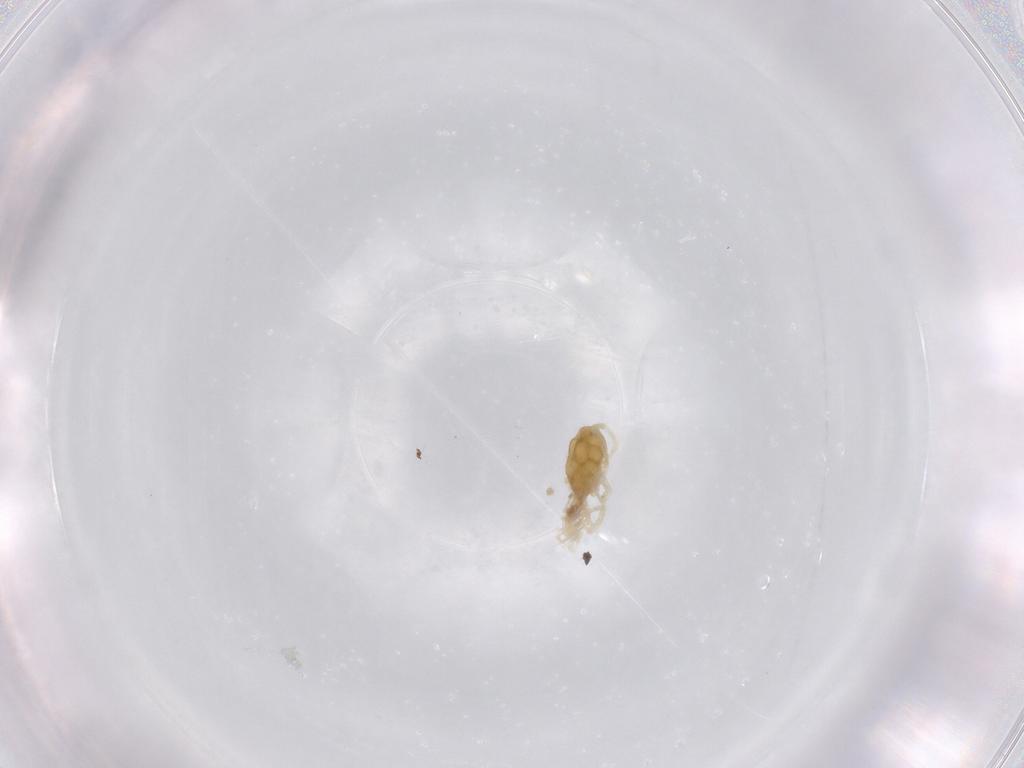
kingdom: Animalia
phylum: Arthropoda
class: Arachnida
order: Trombidiformes
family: Rhagidiidae
